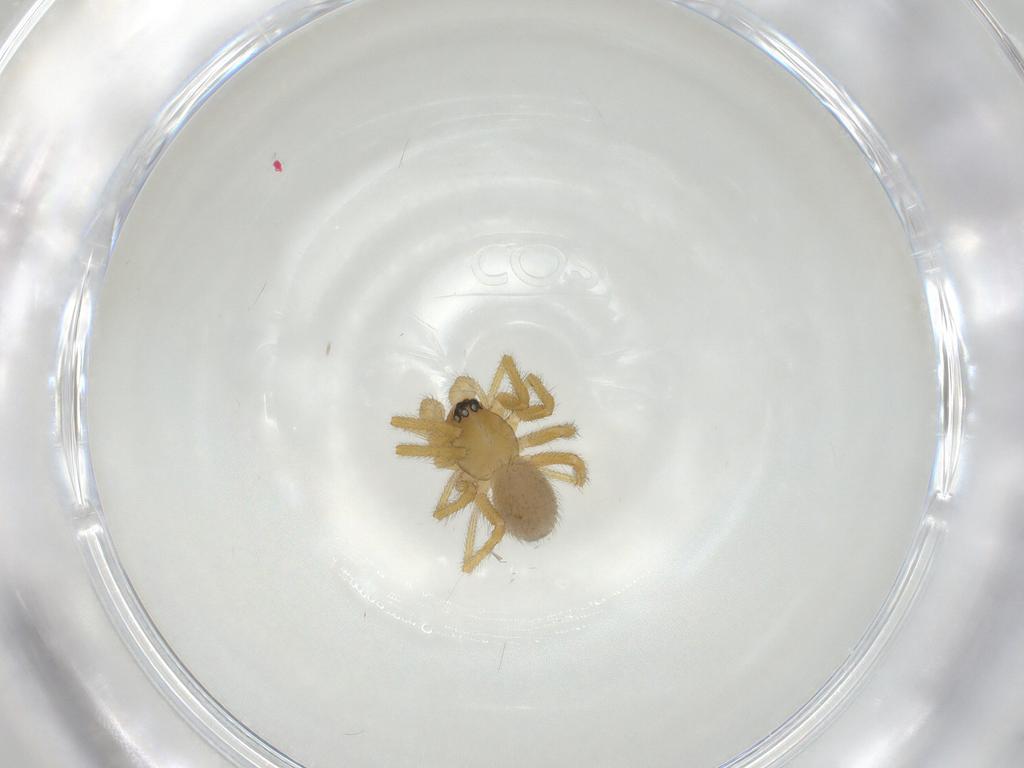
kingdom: Animalia
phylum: Arthropoda
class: Arachnida
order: Araneae
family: Linyphiidae
